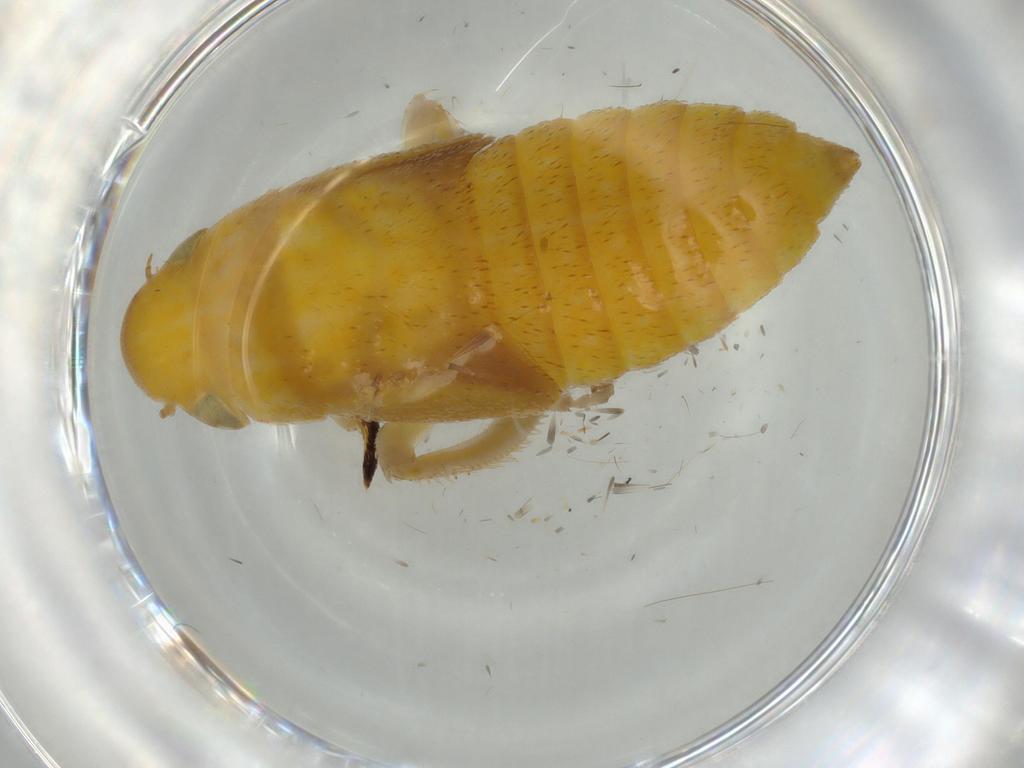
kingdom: Animalia
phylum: Arthropoda
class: Insecta
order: Hemiptera
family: Cicadellidae
